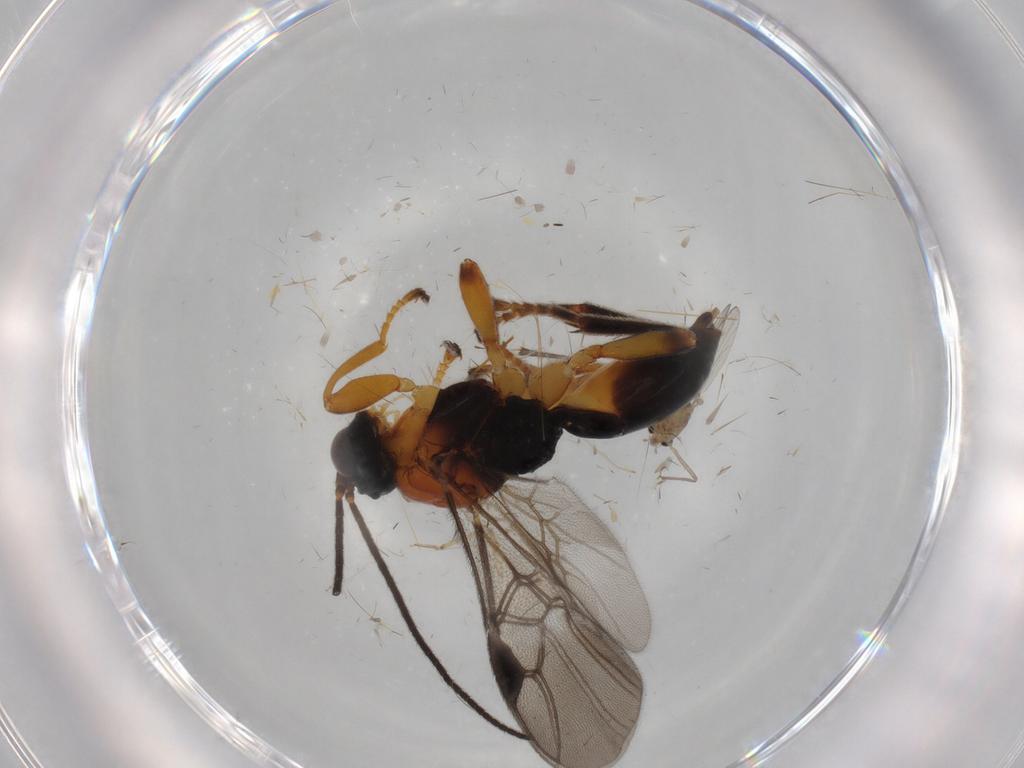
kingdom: Animalia
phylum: Arthropoda
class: Insecta
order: Hymenoptera
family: Braconidae
